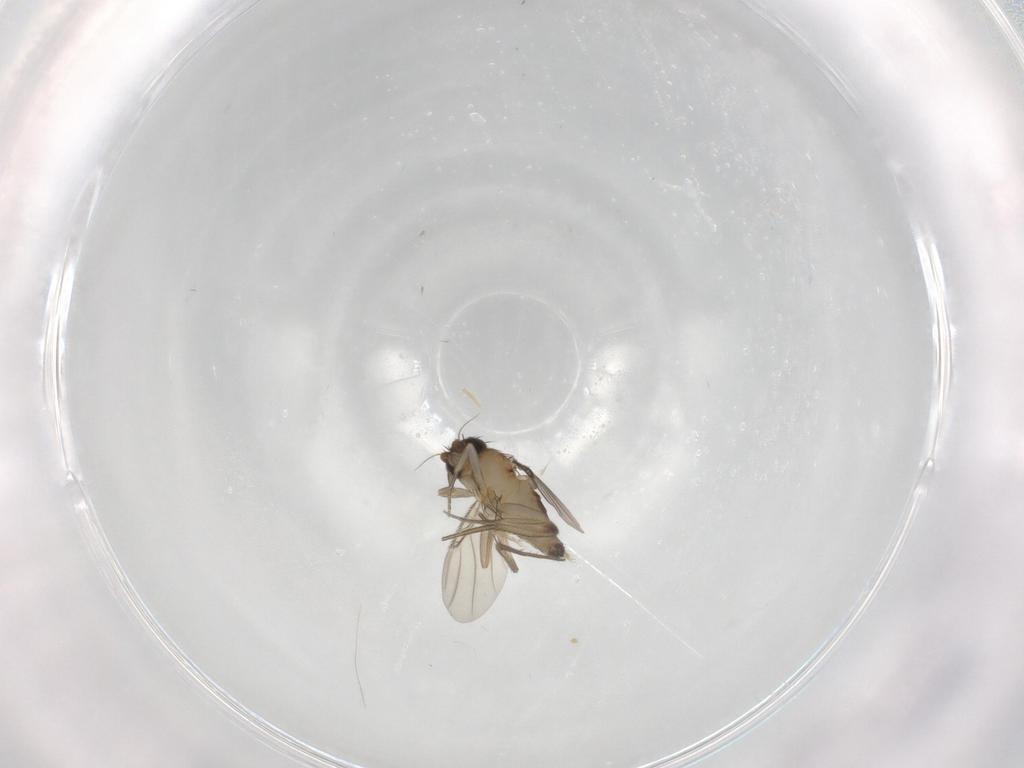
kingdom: Animalia
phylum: Arthropoda
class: Insecta
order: Diptera
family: Phoridae
